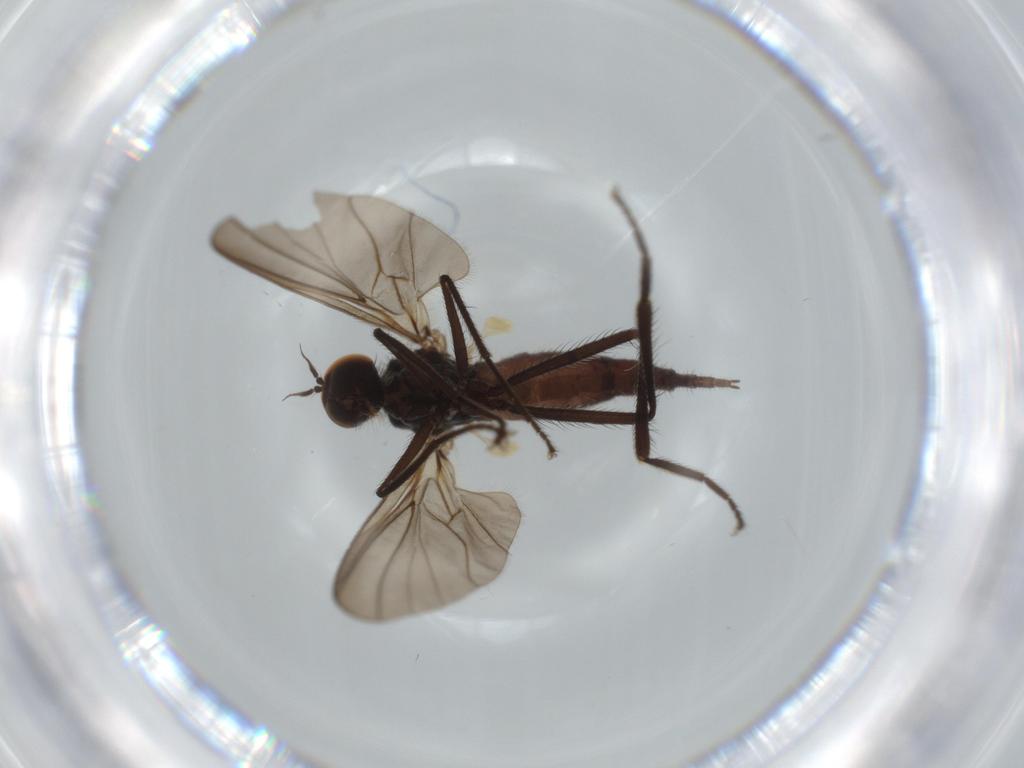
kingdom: Animalia
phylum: Arthropoda
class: Insecta
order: Diptera
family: Hybotidae
